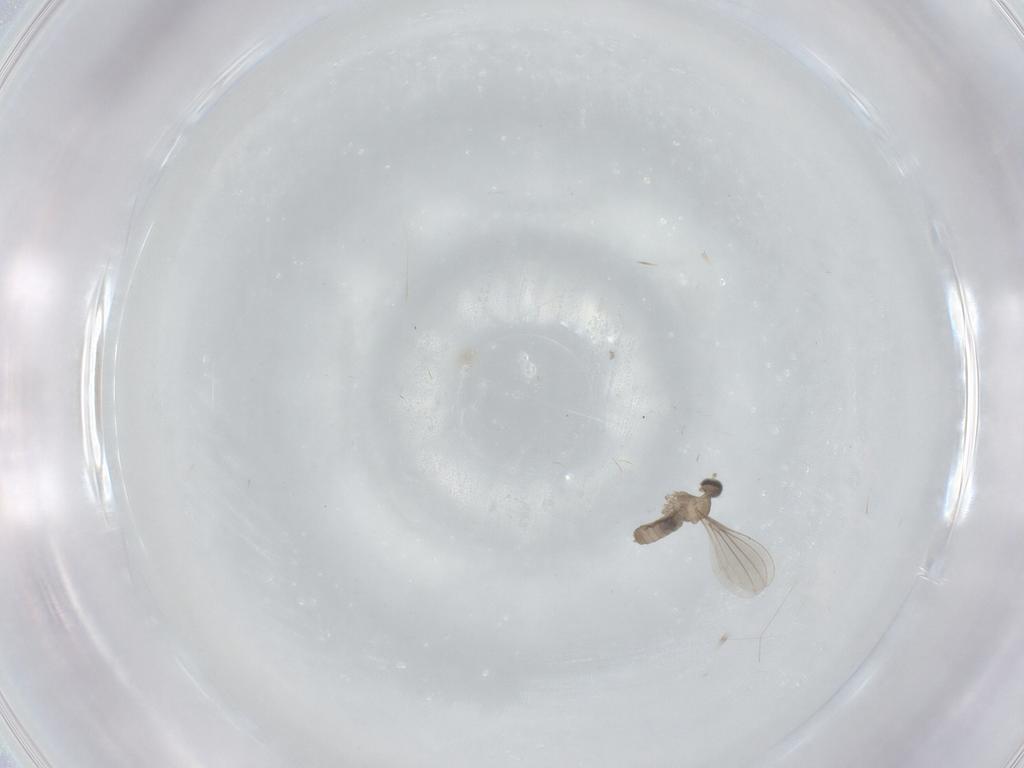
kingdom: Animalia
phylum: Arthropoda
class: Insecta
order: Diptera
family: Cecidomyiidae
